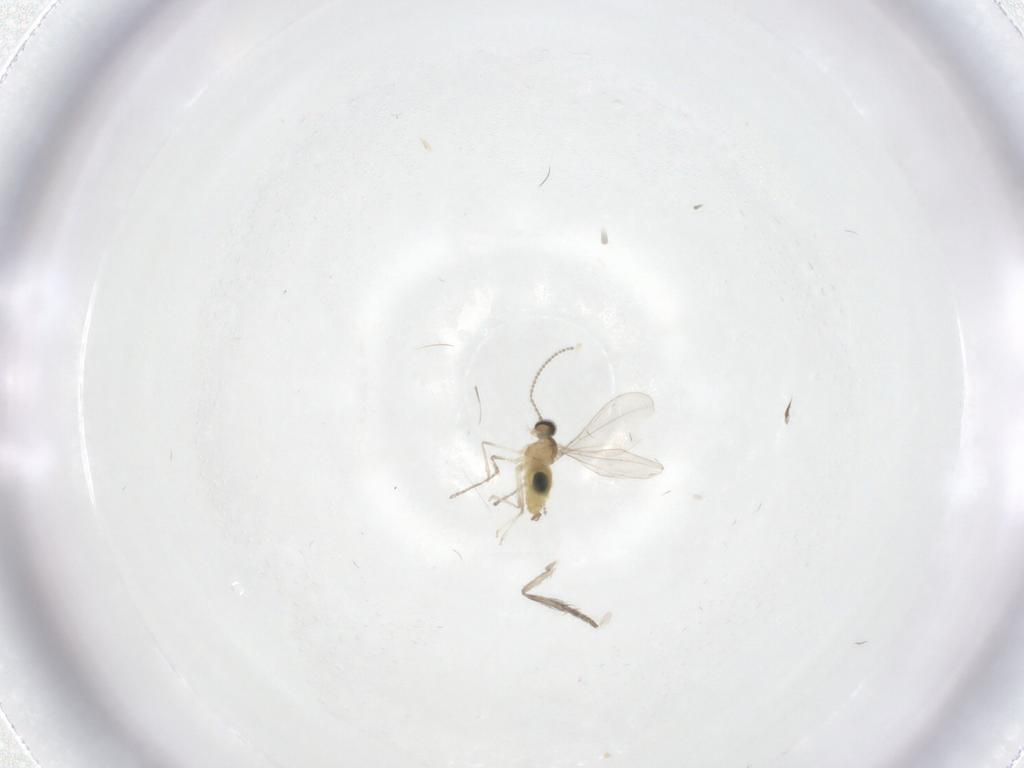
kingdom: Animalia
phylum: Arthropoda
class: Insecta
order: Diptera
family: Cecidomyiidae
